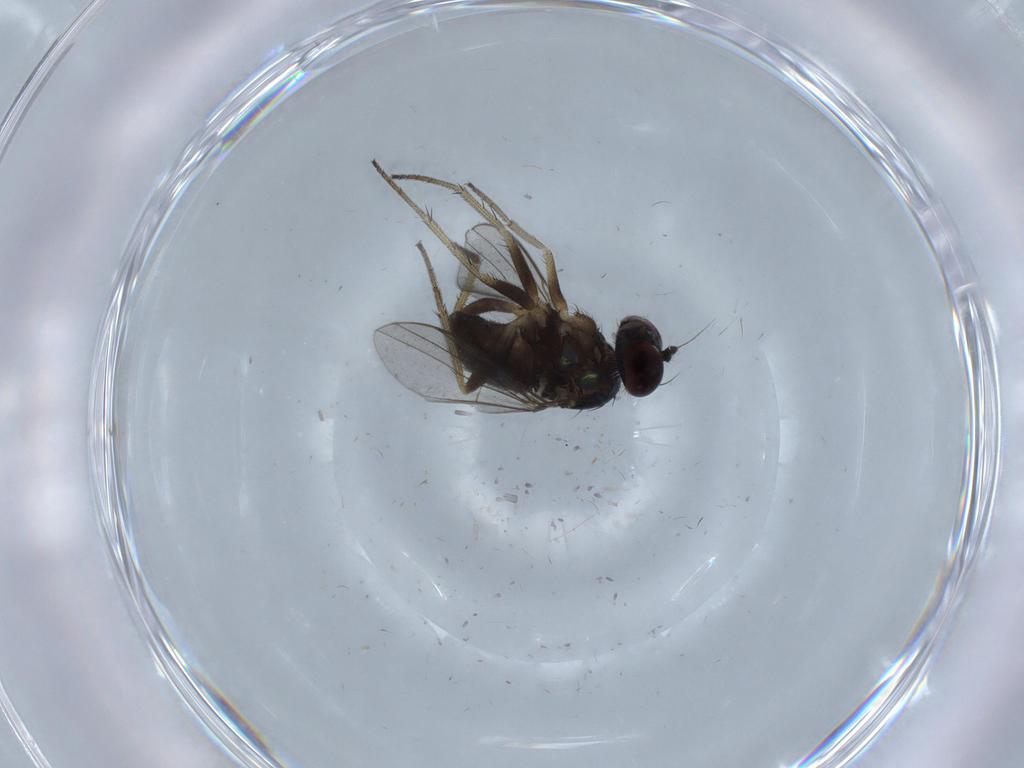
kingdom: Animalia
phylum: Arthropoda
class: Insecta
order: Diptera
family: Chironomidae
